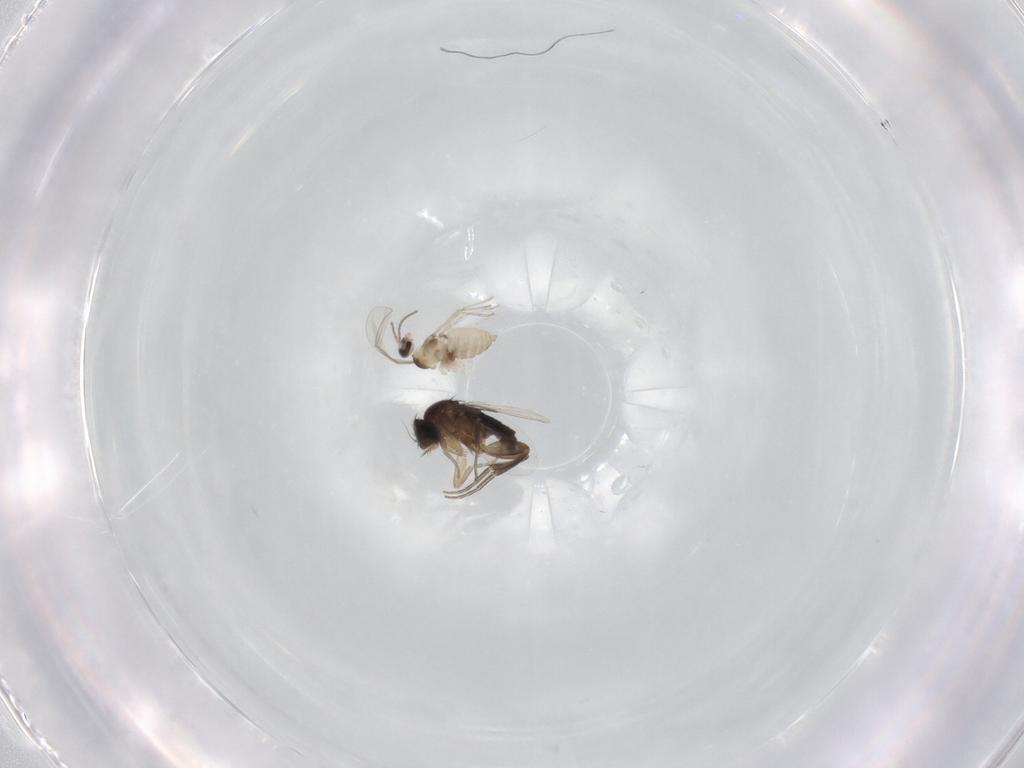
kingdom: Animalia
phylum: Arthropoda
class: Insecta
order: Diptera
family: Cecidomyiidae
